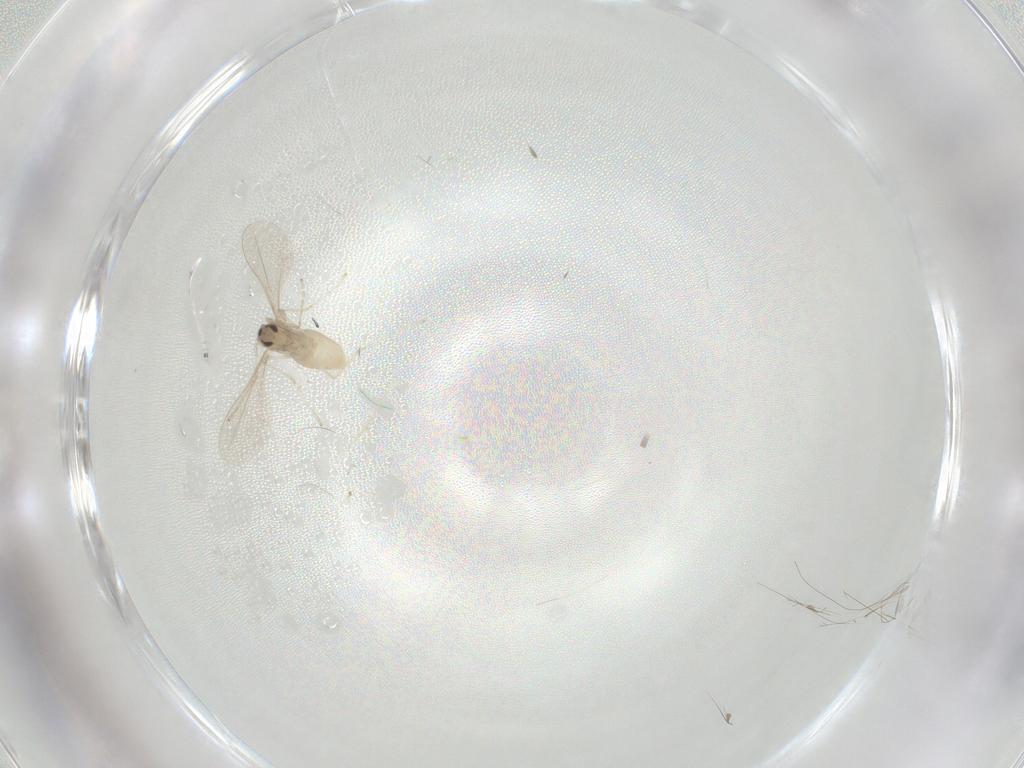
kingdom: Animalia
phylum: Arthropoda
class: Insecta
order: Diptera
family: Cecidomyiidae
